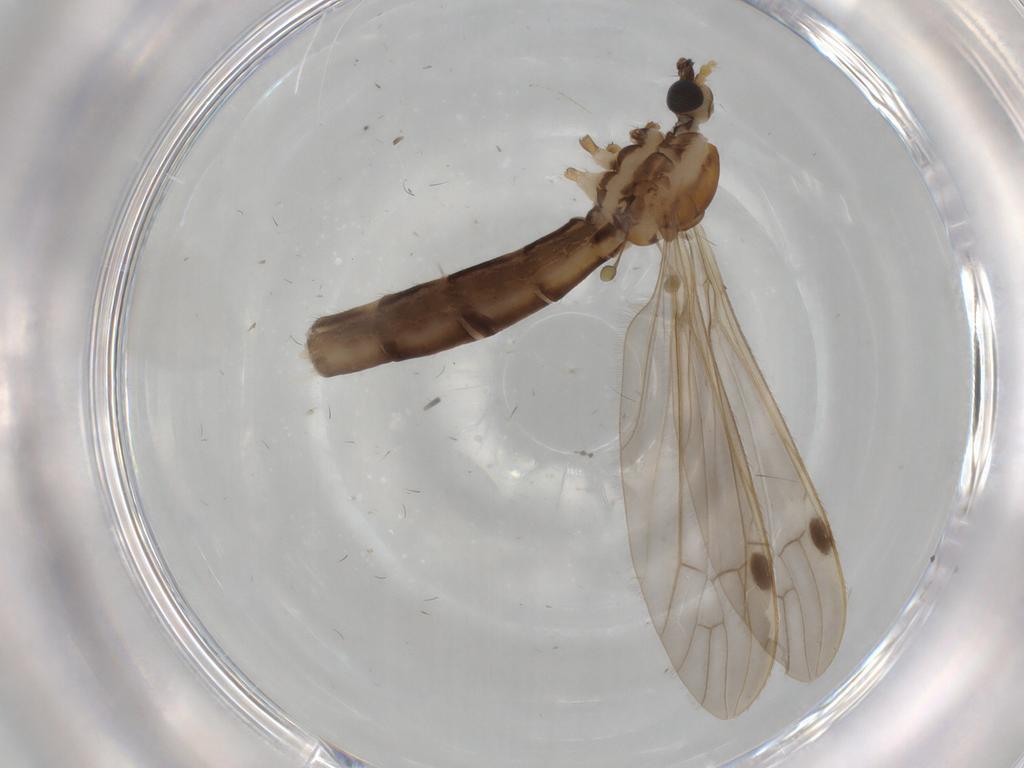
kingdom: Animalia
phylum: Arthropoda
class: Insecta
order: Diptera
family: Limoniidae
